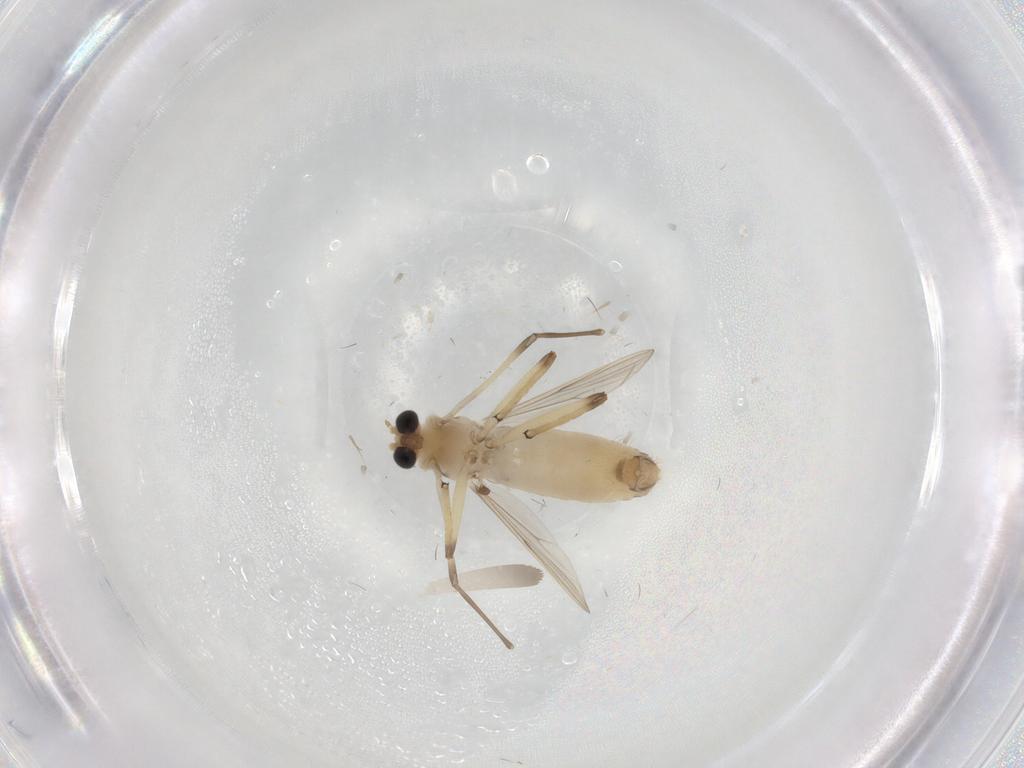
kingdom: Animalia
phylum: Arthropoda
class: Insecta
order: Diptera
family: Chironomidae
